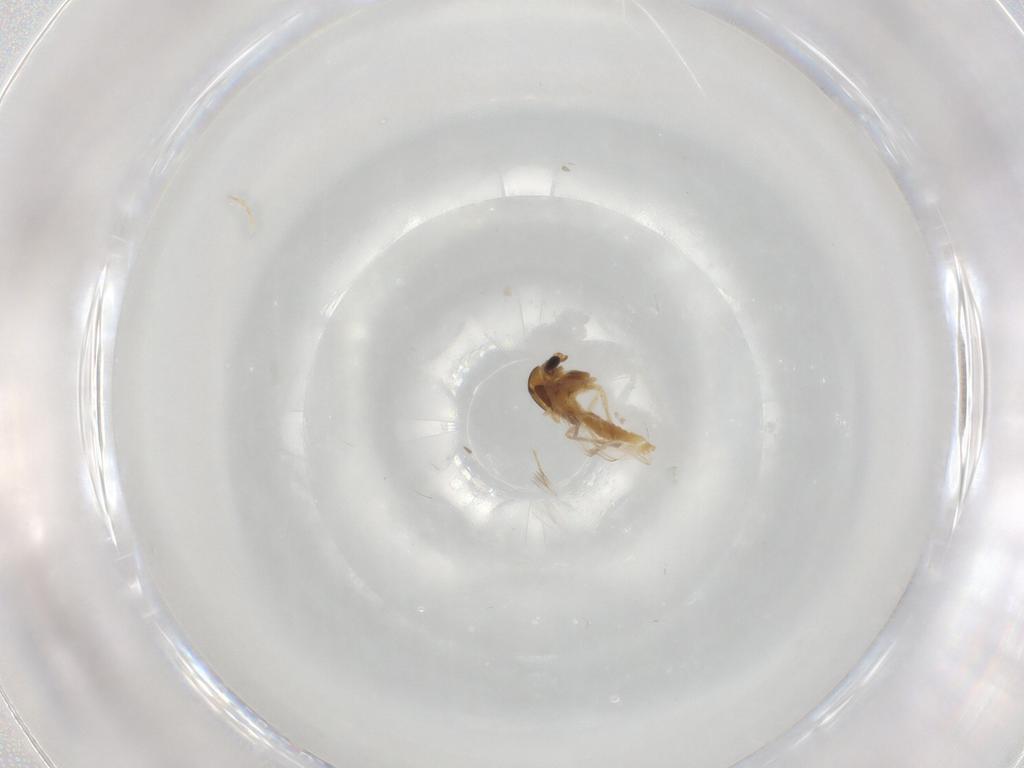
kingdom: Animalia
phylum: Arthropoda
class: Insecta
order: Diptera
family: Chironomidae
